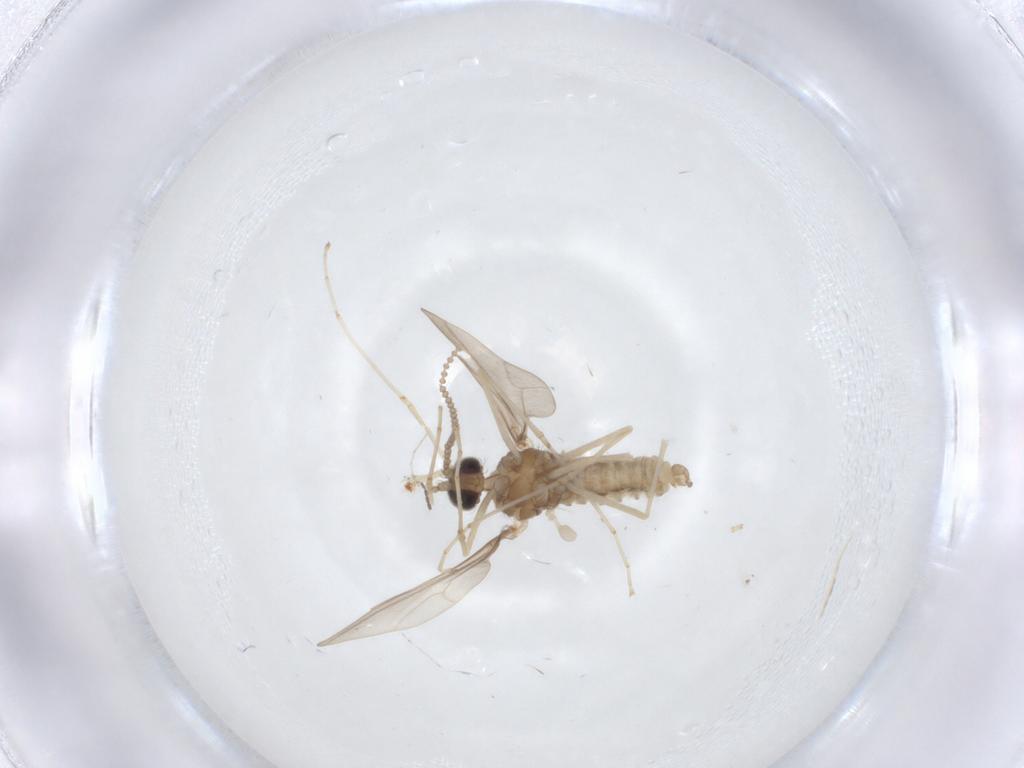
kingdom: Animalia
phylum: Arthropoda
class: Insecta
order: Diptera
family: Cecidomyiidae
